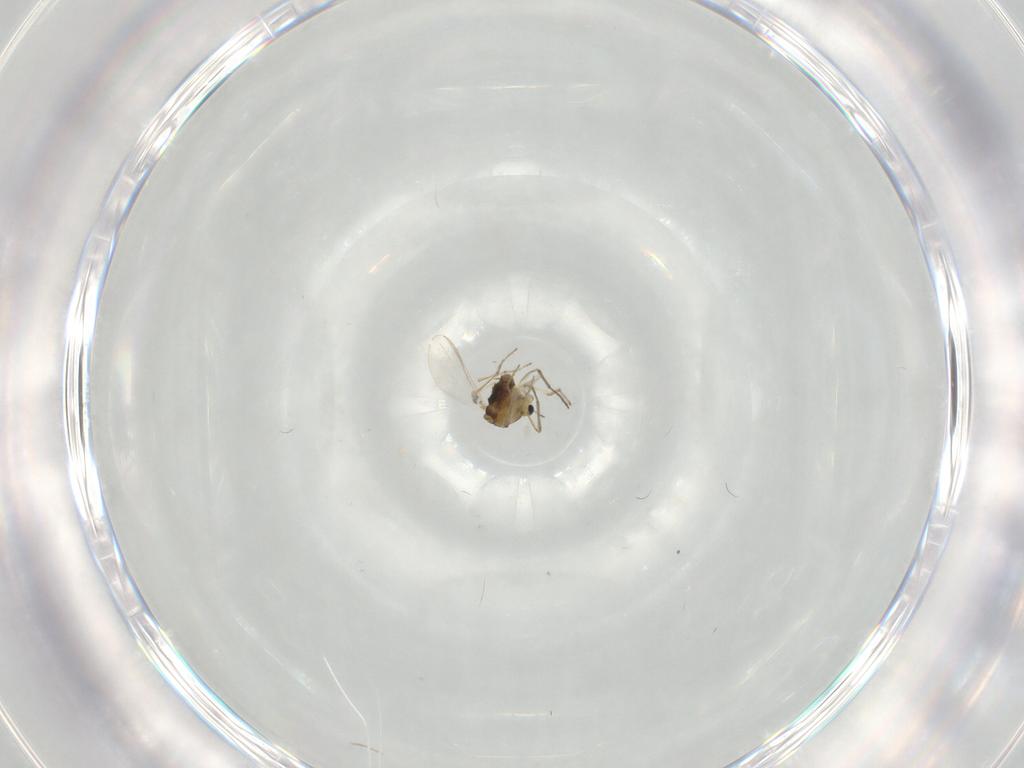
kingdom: Animalia
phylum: Arthropoda
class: Insecta
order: Diptera
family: Chironomidae
